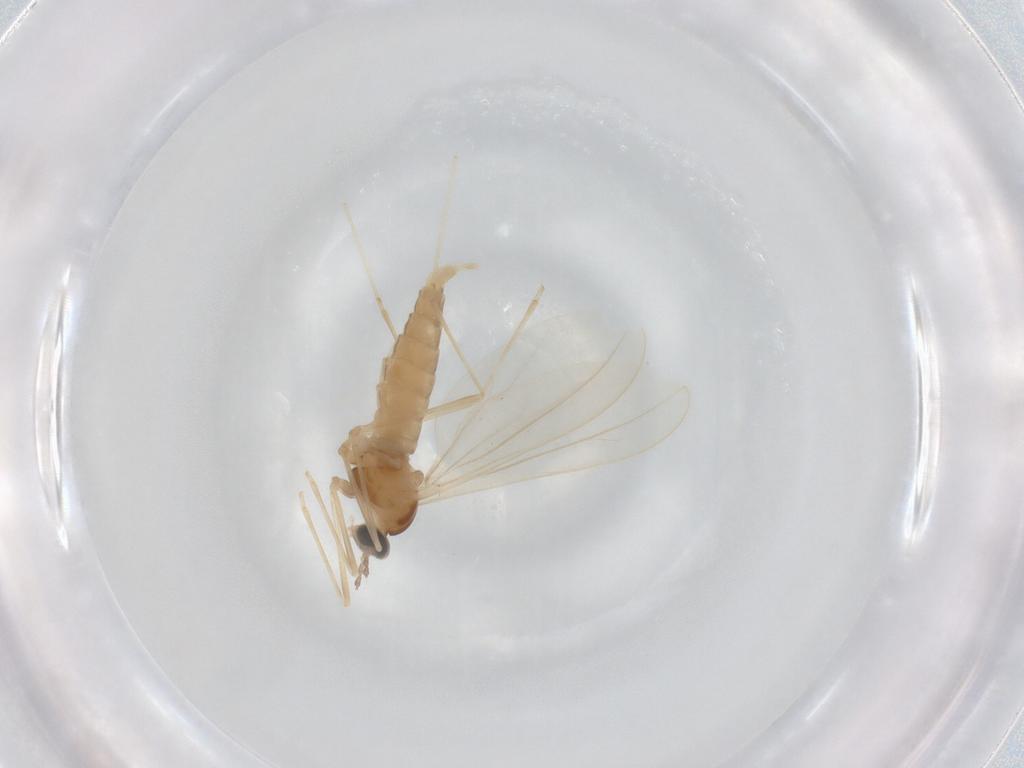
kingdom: Animalia
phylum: Arthropoda
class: Insecta
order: Diptera
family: Cecidomyiidae
